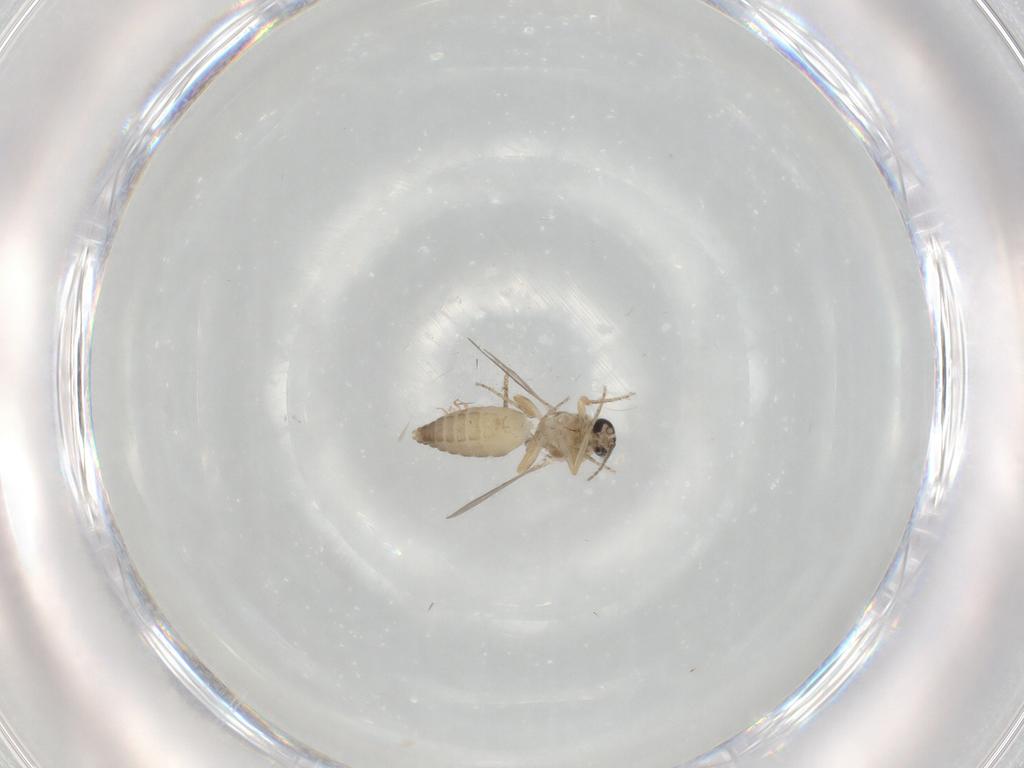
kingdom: Animalia
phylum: Arthropoda
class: Insecta
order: Diptera
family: Ceratopogonidae
